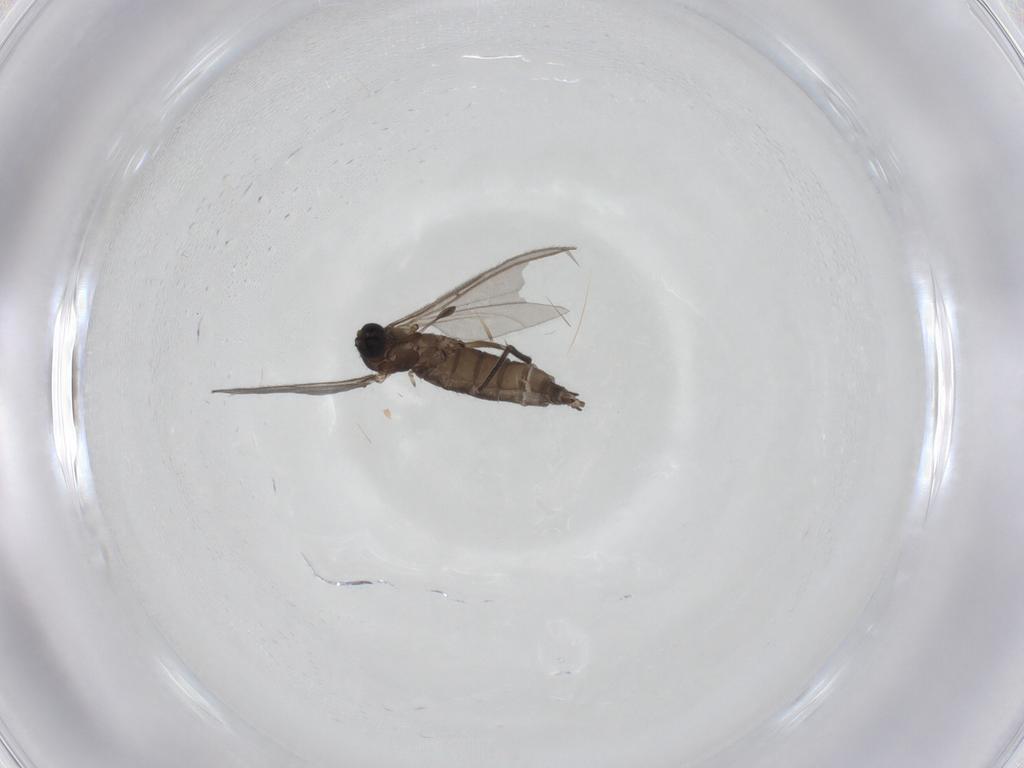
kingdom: Animalia
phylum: Arthropoda
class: Insecta
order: Diptera
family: Sciaridae
